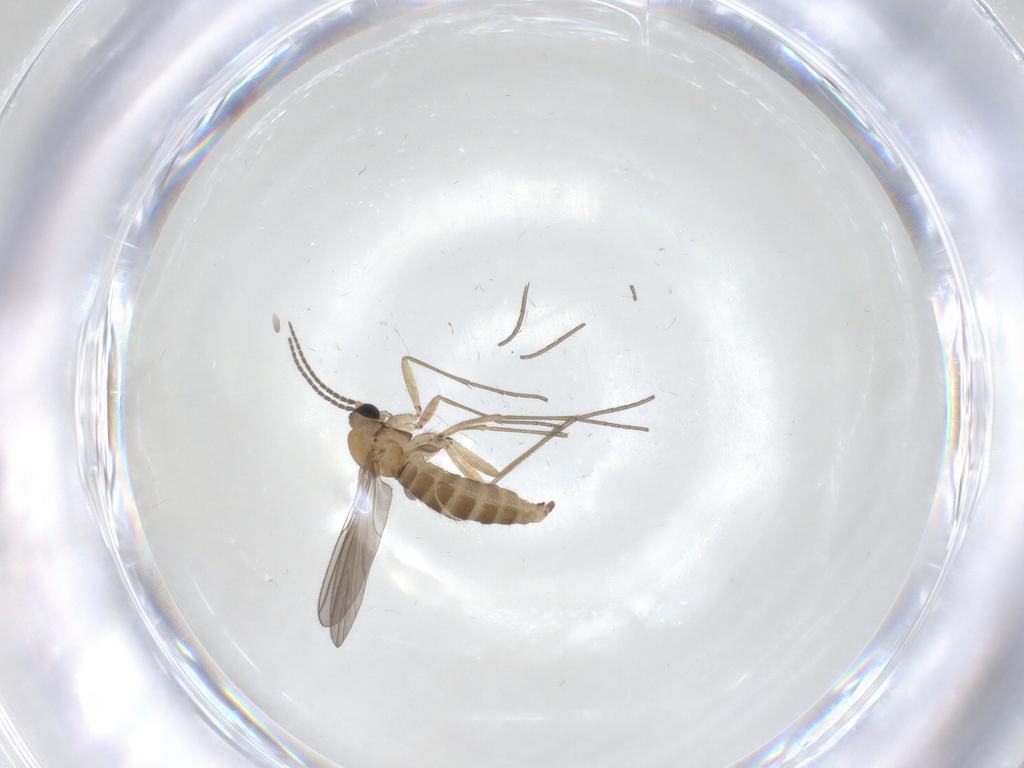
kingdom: Animalia
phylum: Arthropoda
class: Insecta
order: Diptera
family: Sciaridae
